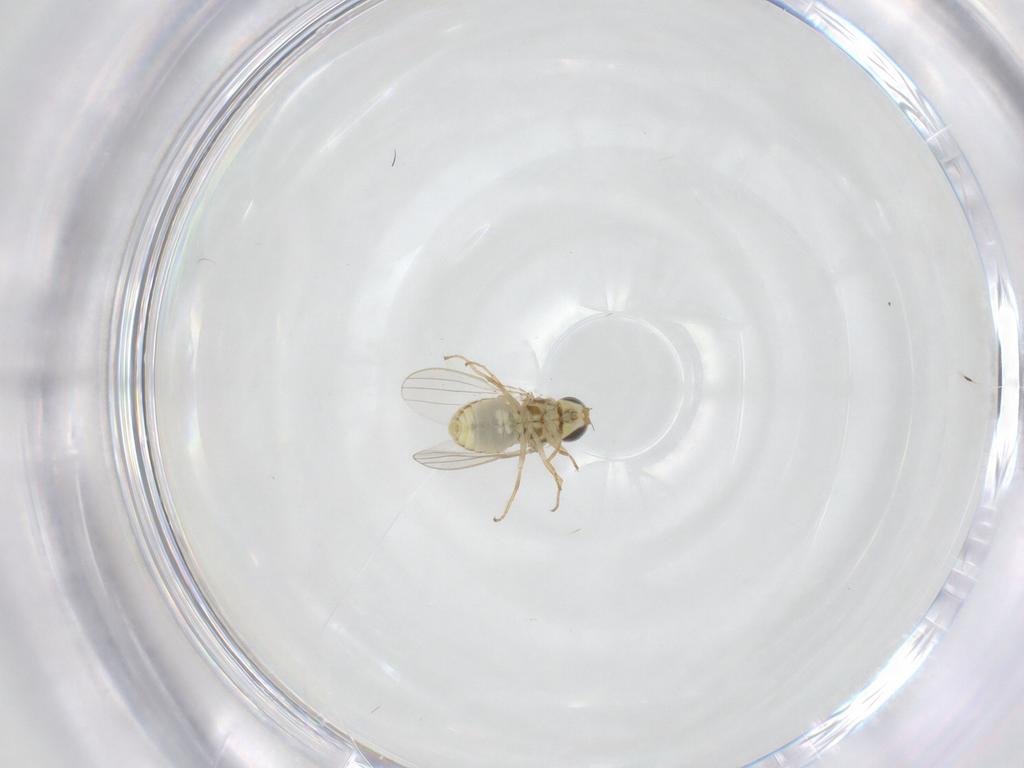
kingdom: Animalia
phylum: Arthropoda
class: Insecta
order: Diptera
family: Chyromyidae
